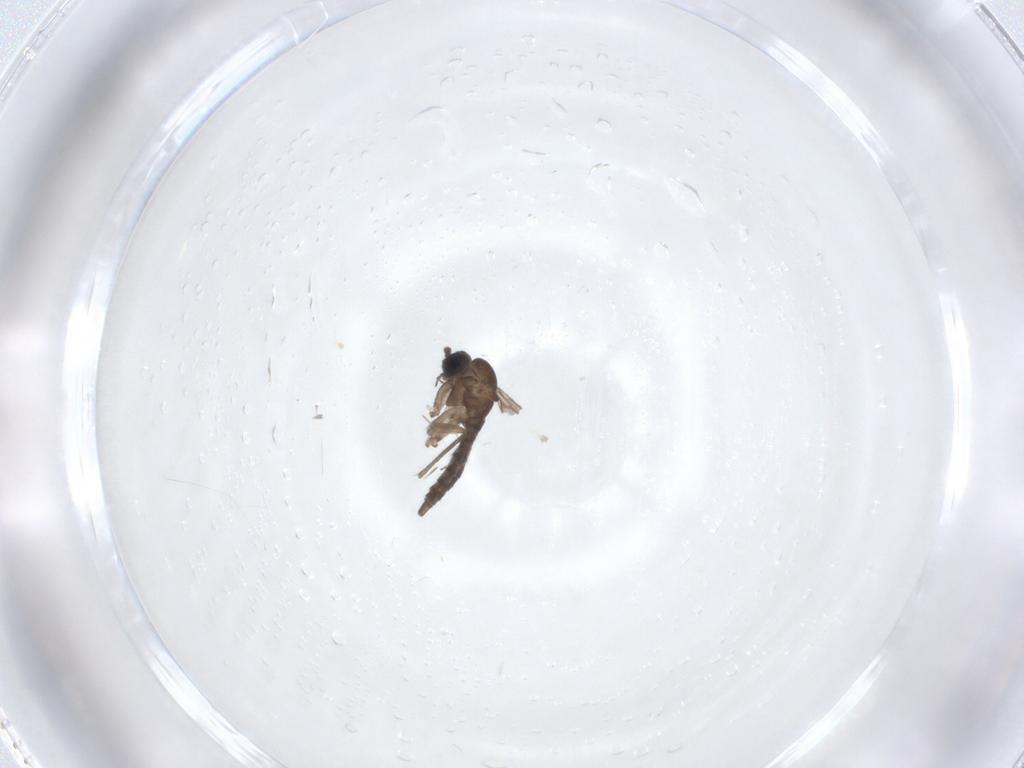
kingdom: Animalia
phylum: Arthropoda
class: Insecta
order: Diptera
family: Sciaridae
